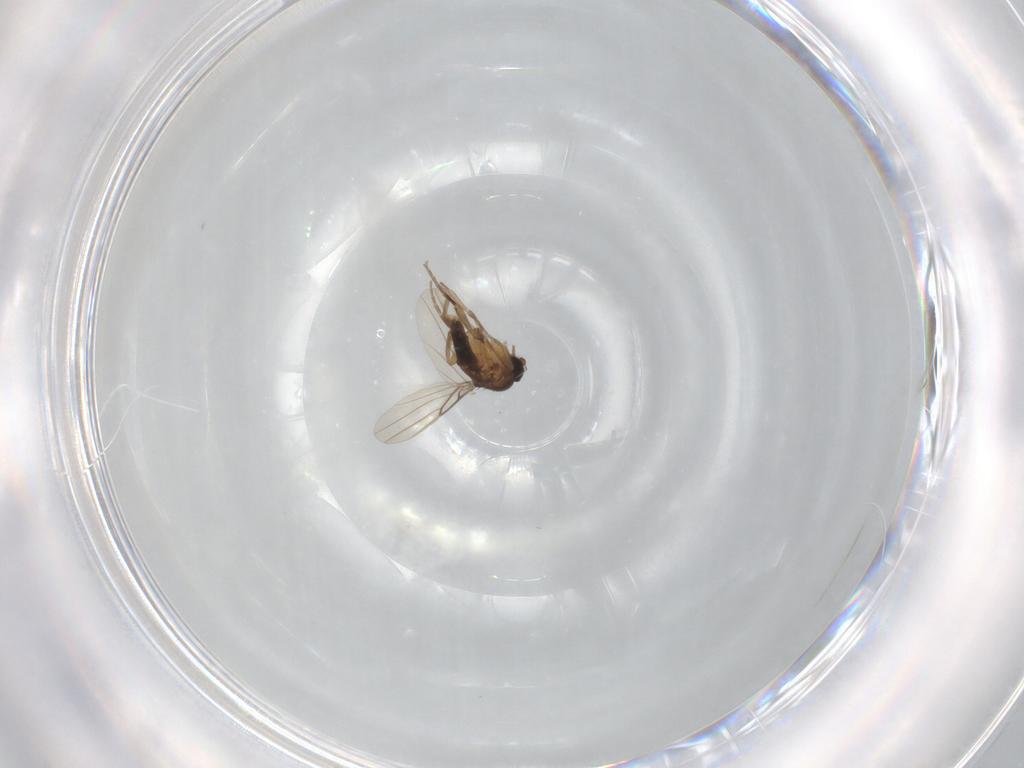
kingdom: Animalia
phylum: Arthropoda
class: Insecta
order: Diptera
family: Phoridae
